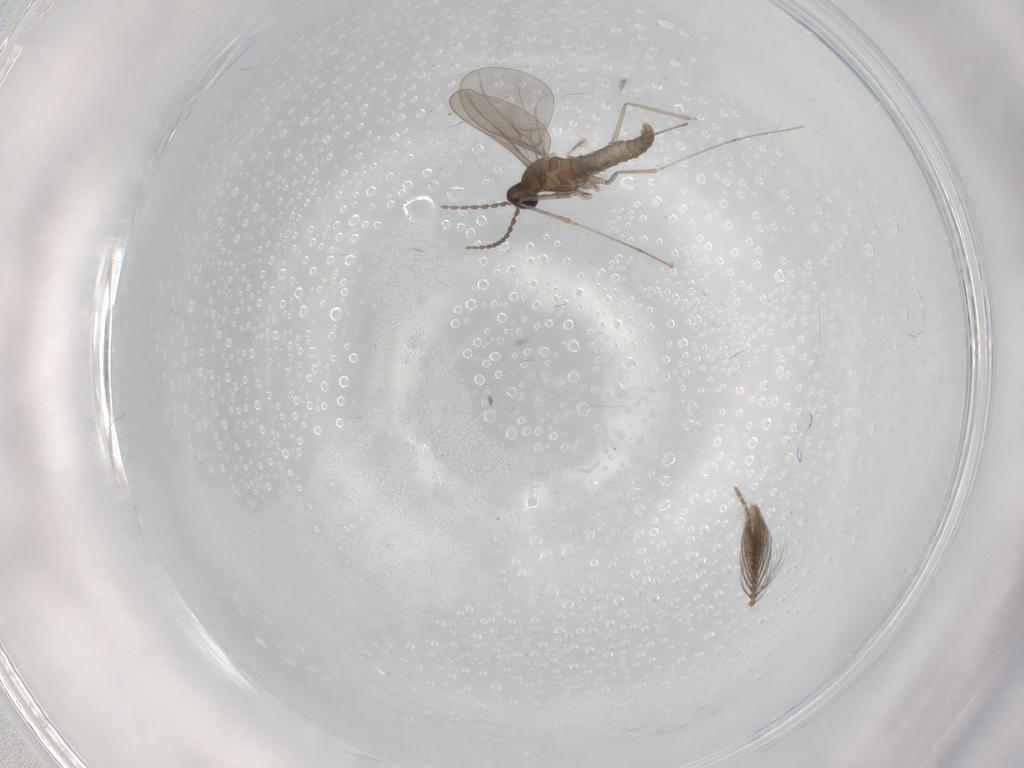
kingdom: Animalia
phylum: Arthropoda
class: Insecta
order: Diptera
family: Cecidomyiidae
